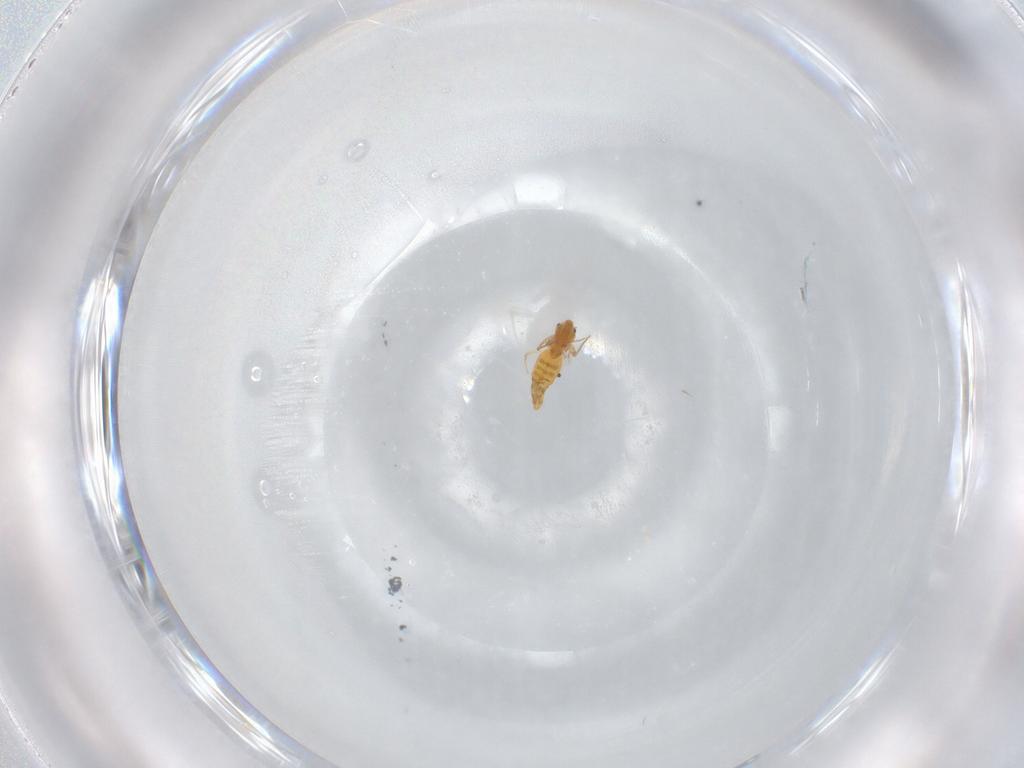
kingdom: Animalia
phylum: Arthropoda
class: Insecta
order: Diptera
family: Chironomidae
